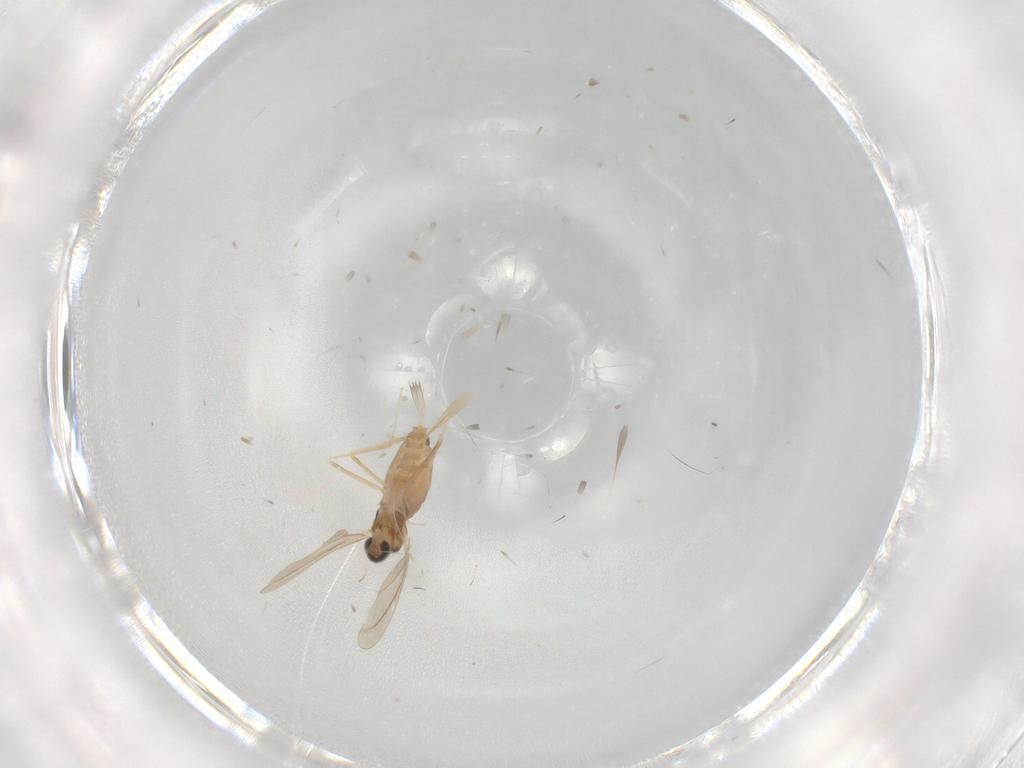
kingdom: Animalia
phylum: Arthropoda
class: Insecta
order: Diptera
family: Cecidomyiidae
